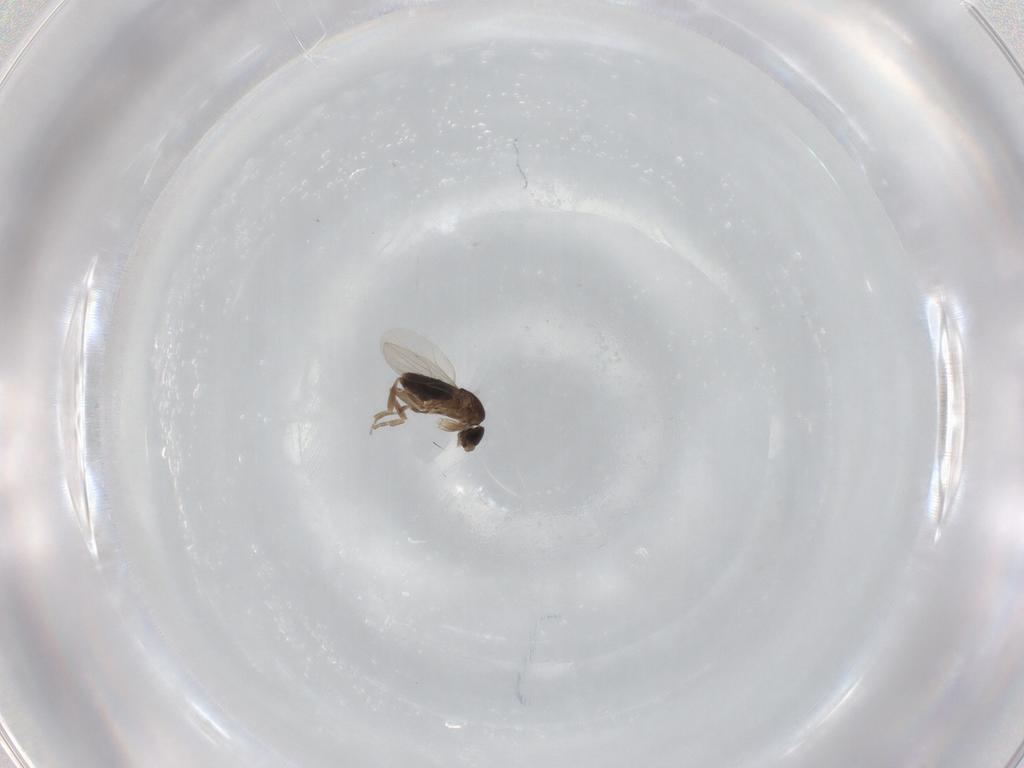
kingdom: Animalia
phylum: Arthropoda
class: Insecta
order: Diptera
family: Phoridae
